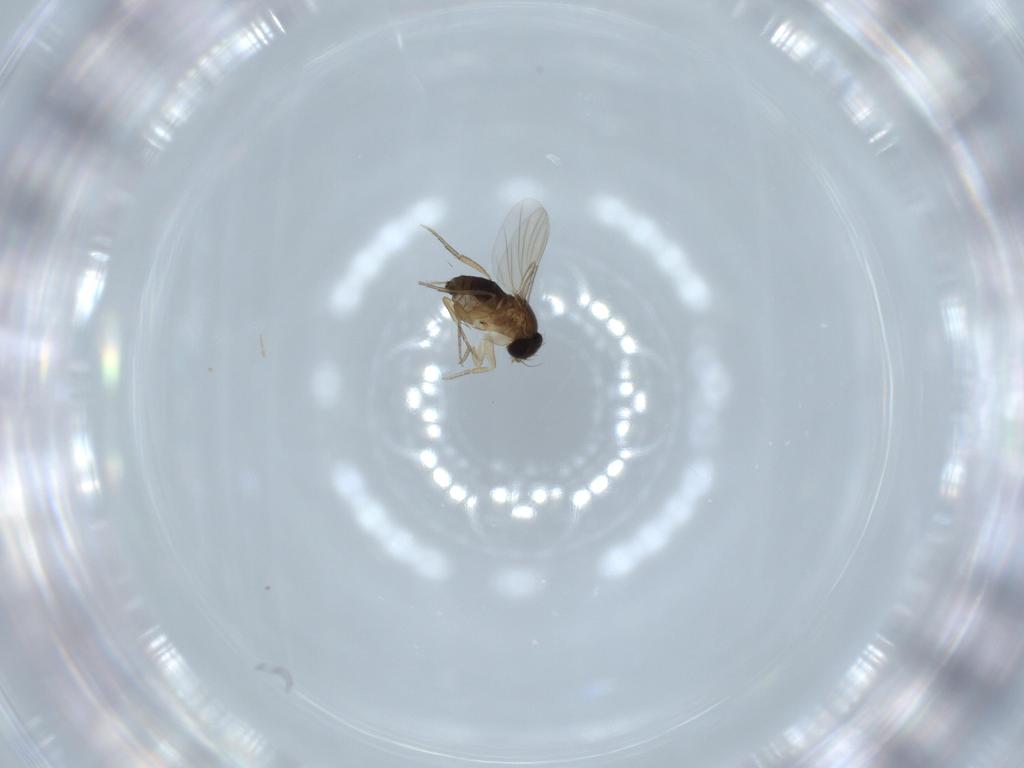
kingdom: Animalia
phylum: Arthropoda
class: Insecta
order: Diptera
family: Phoridae
